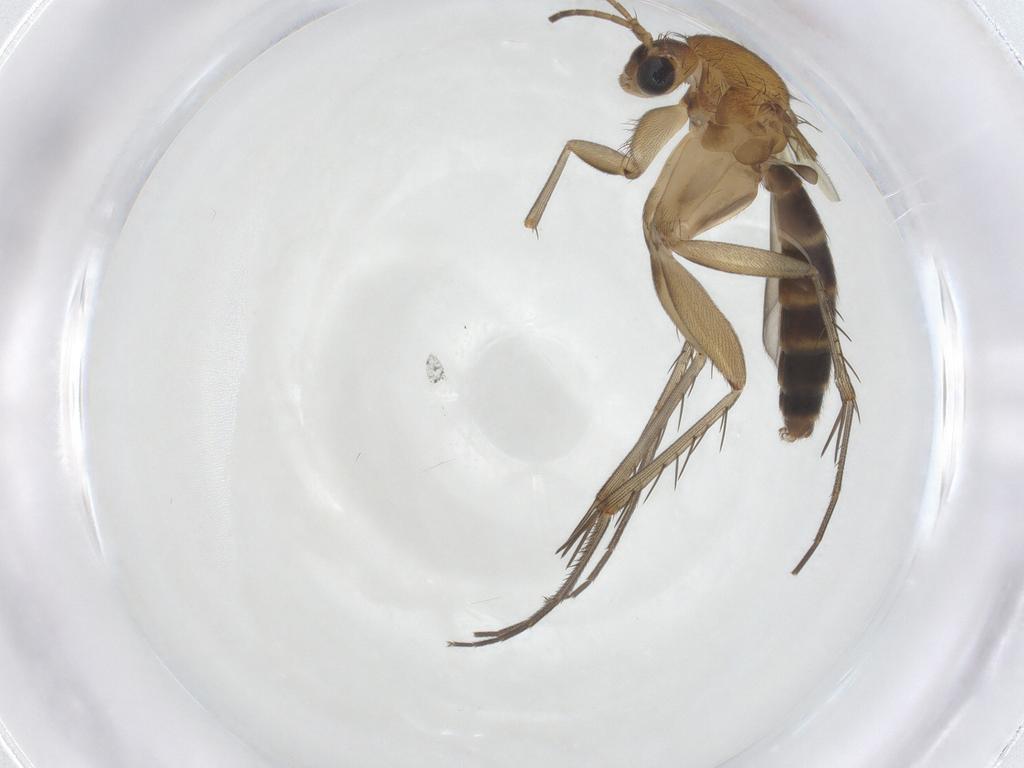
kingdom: Animalia
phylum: Arthropoda
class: Insecta
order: Diptera
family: Mycetophilidae
